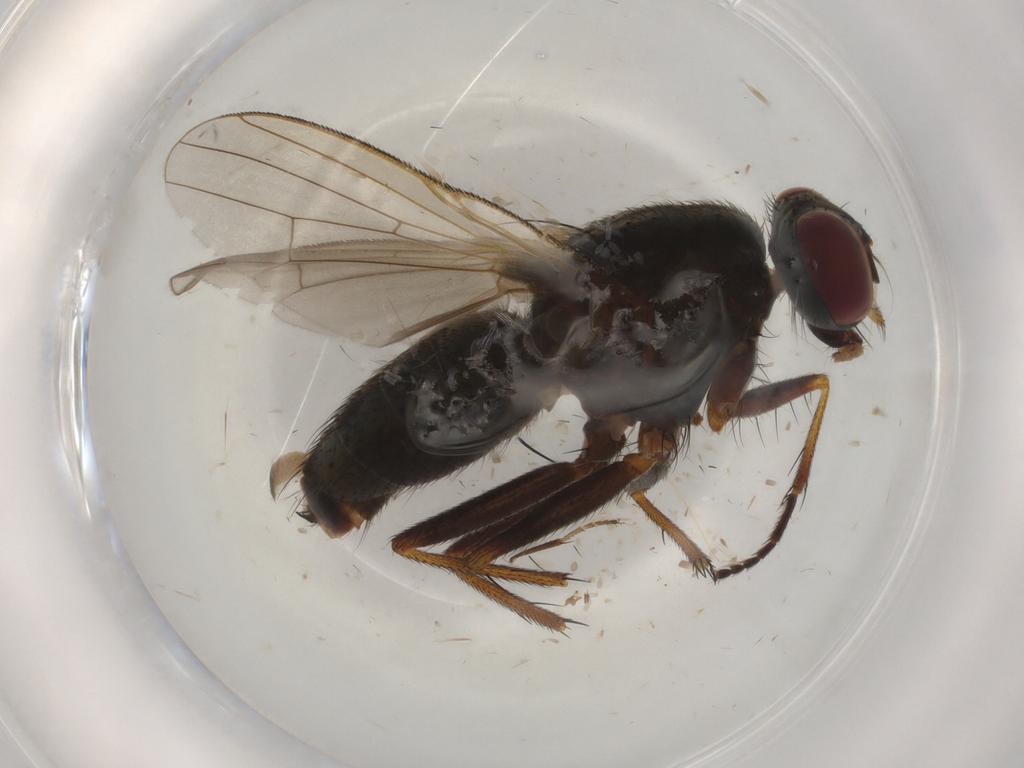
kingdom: Animalia
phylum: Arthropoda
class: Insecta
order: Diptera
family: Muscidae
